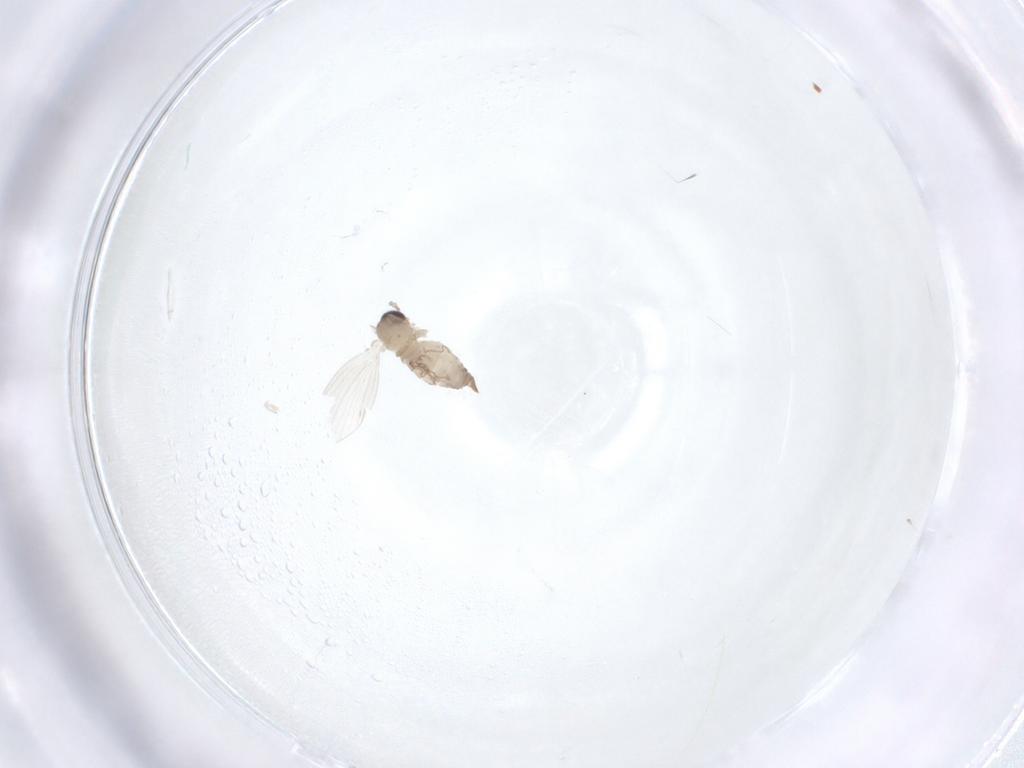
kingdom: Animalia
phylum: Arthropoda
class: Insecta
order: Diptera
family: Psychodidae
